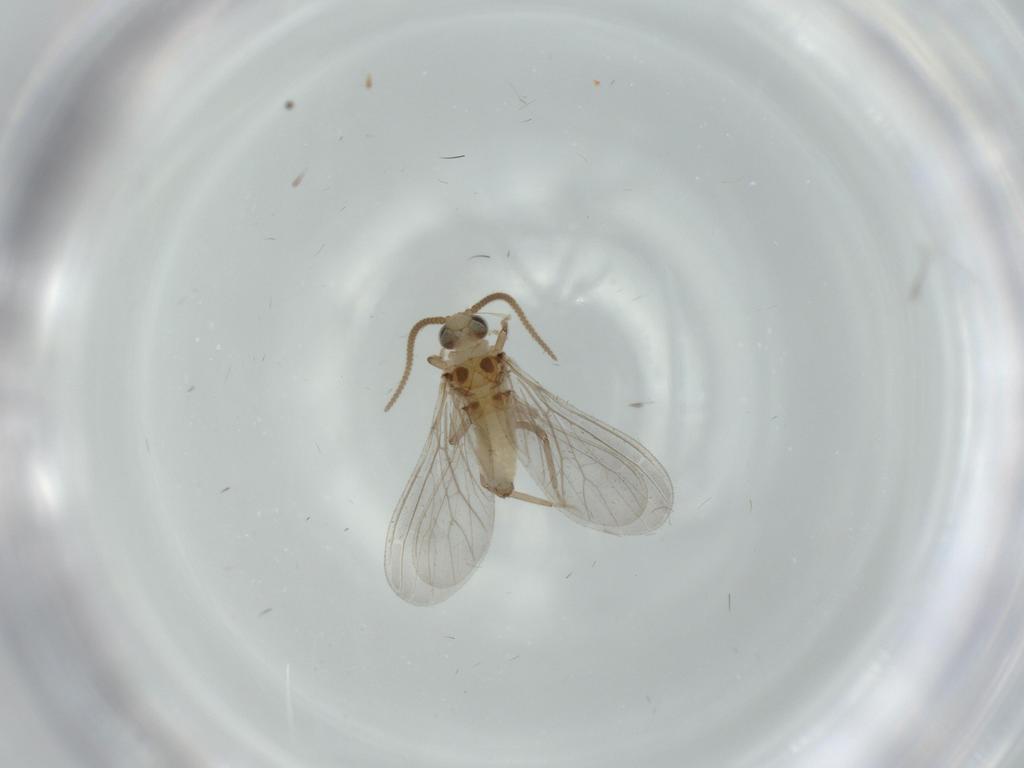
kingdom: Animalia
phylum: Arthropoda
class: Insecta
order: Neuroptera
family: Coniopterygidae
